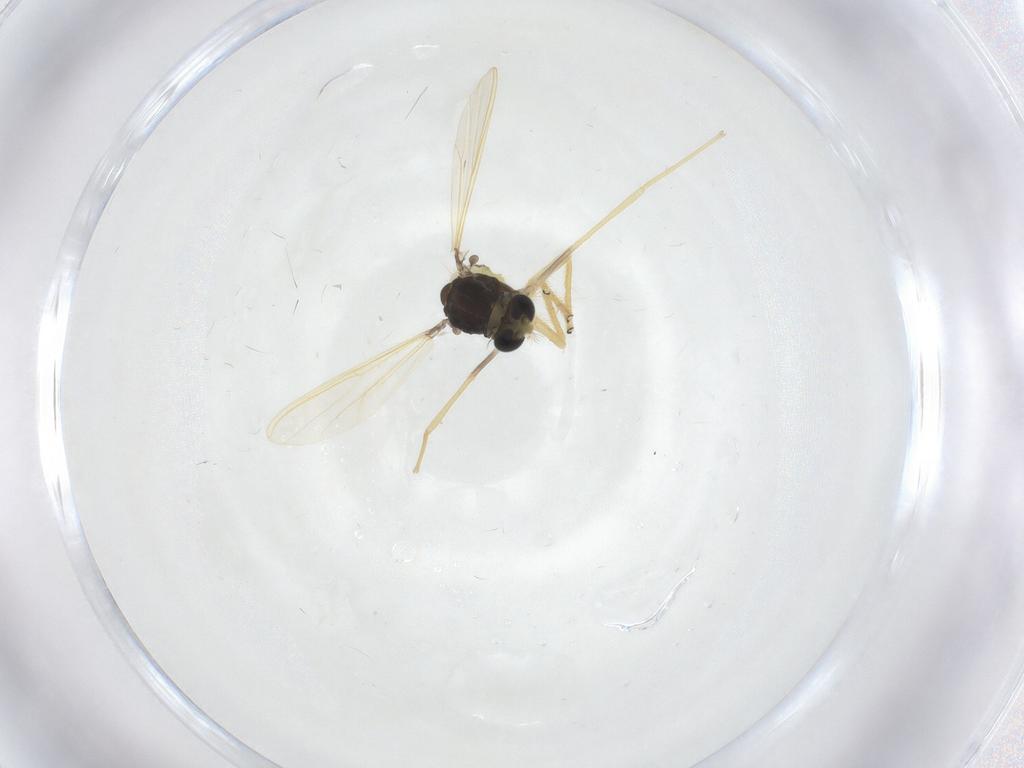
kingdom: Animalia
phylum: Arthropoda
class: Insecta
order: Diptera
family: Chironomidae
